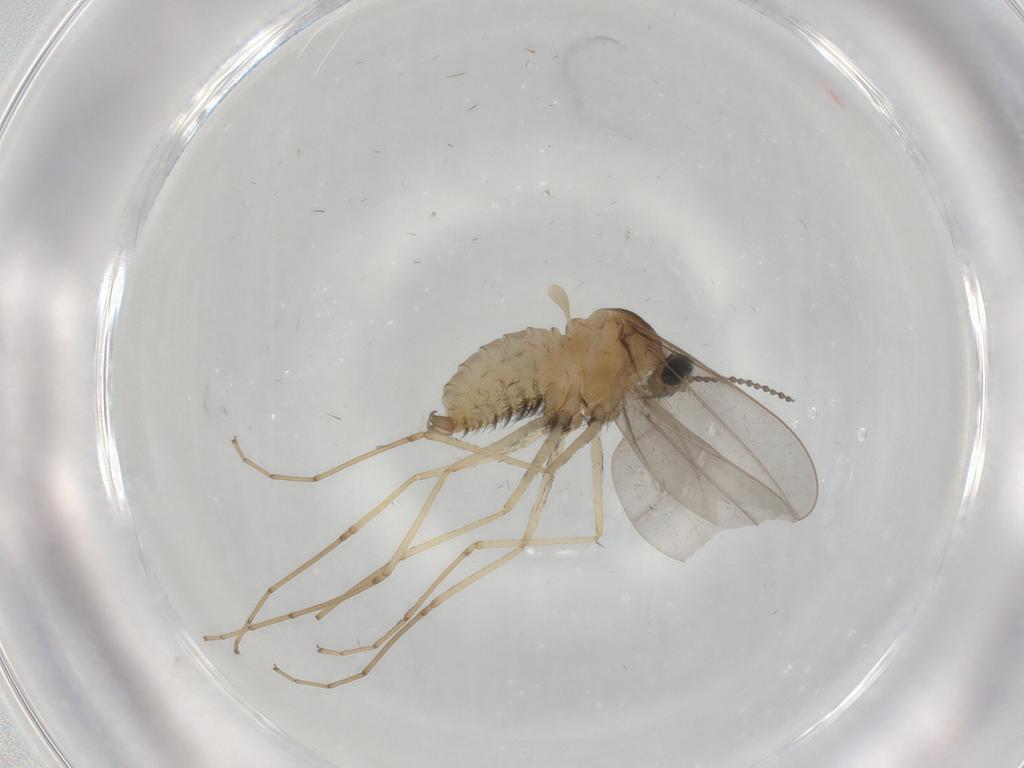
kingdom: Animalia
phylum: Arthropoda
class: Insecta
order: Diptera
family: Cecidomyiidae
